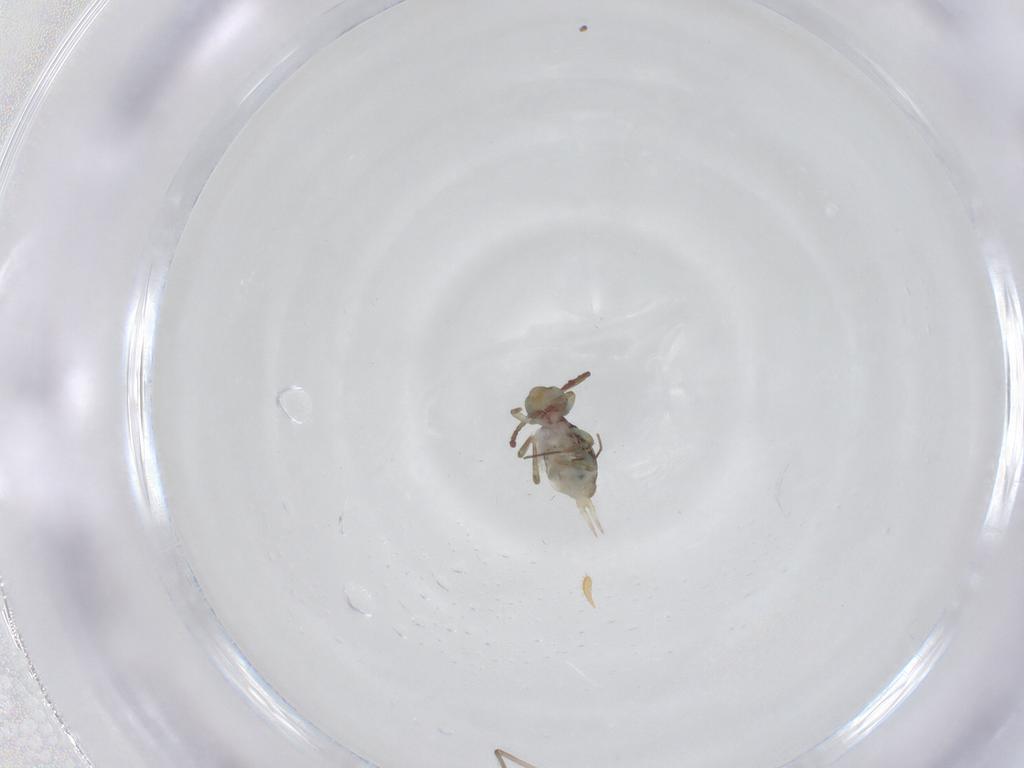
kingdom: Animalia
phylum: Arthropoda
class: Collembola
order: Symphypleona
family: Dicyrtomidae
